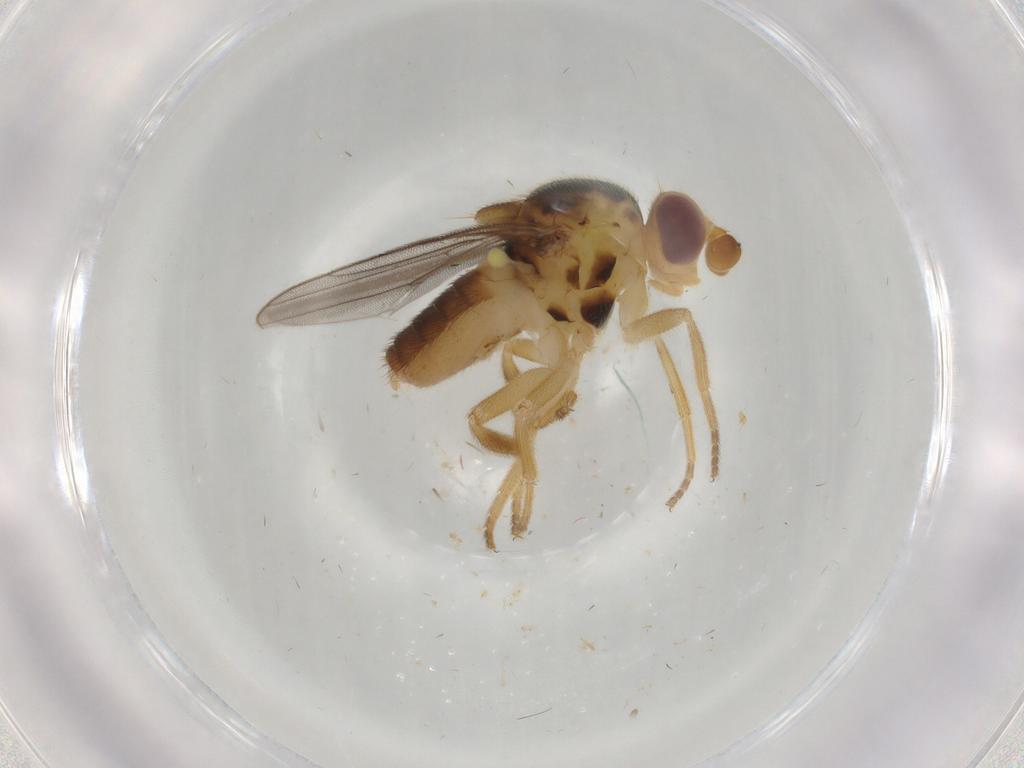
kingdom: Animalia
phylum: Arthropoda
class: Insecta
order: Diptera
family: Chloropidae
